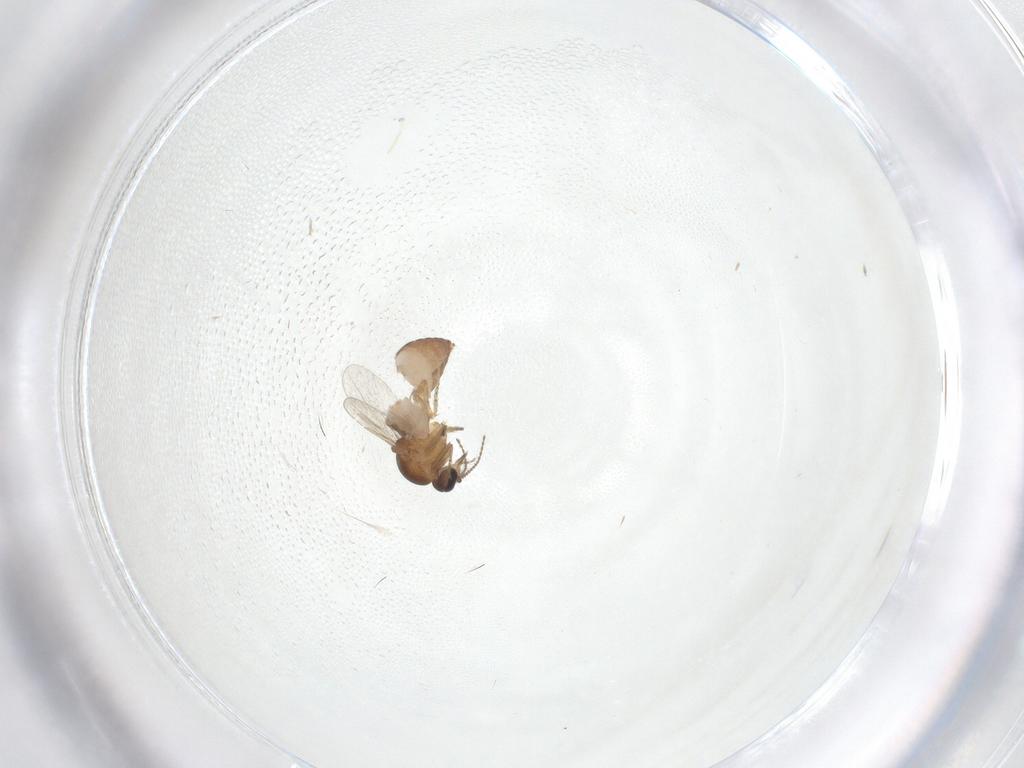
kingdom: Animalia
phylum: Arthropoda
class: Insecta
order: Diptera
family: Ceratopogonidae
